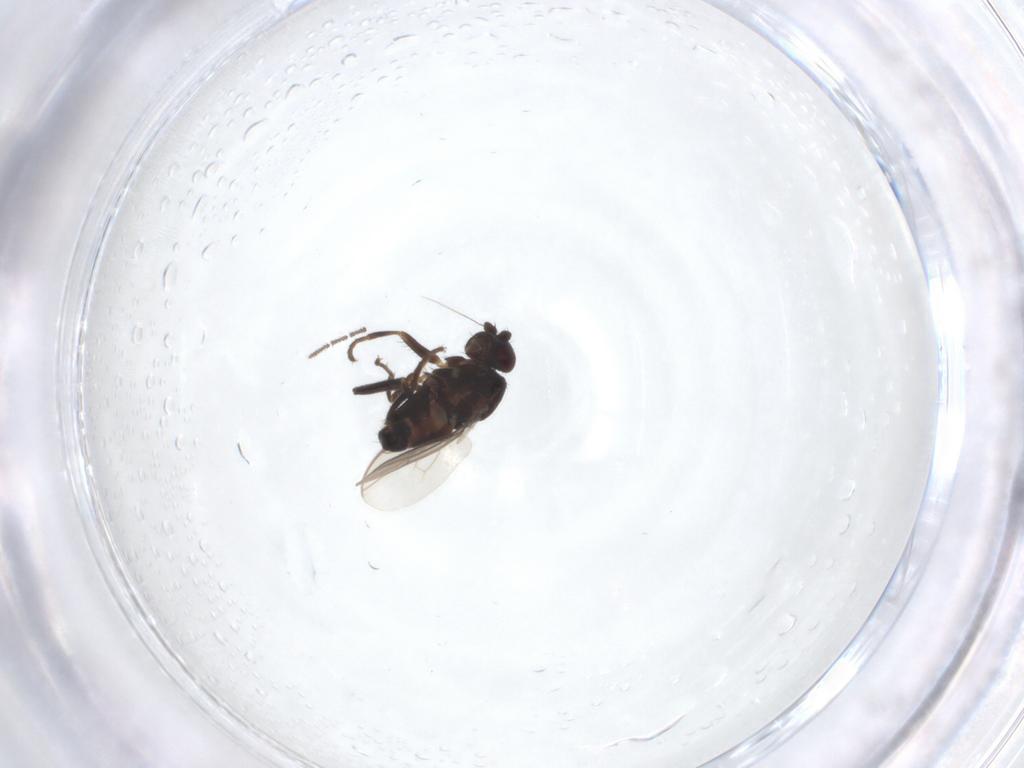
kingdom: Animalia
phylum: Arthropoda
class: Insecta
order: Diptera
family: Sphaeroceridae
